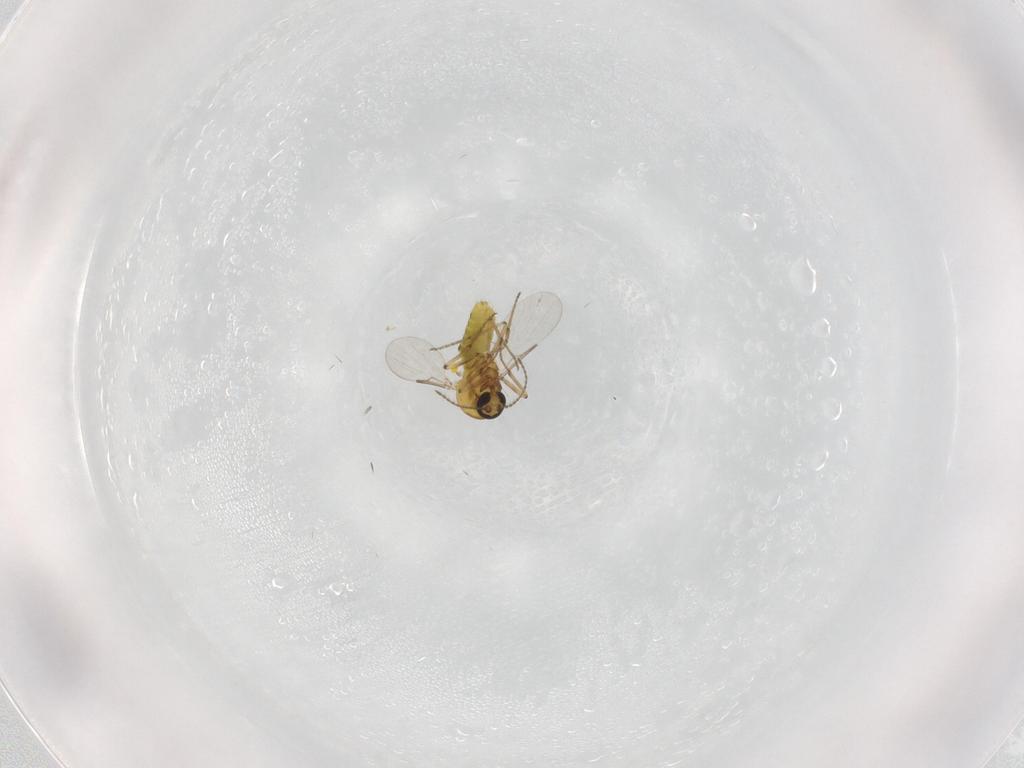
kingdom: Animalia
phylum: Arthropoda
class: Insecta
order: Diptera
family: Ceratopogonidae
